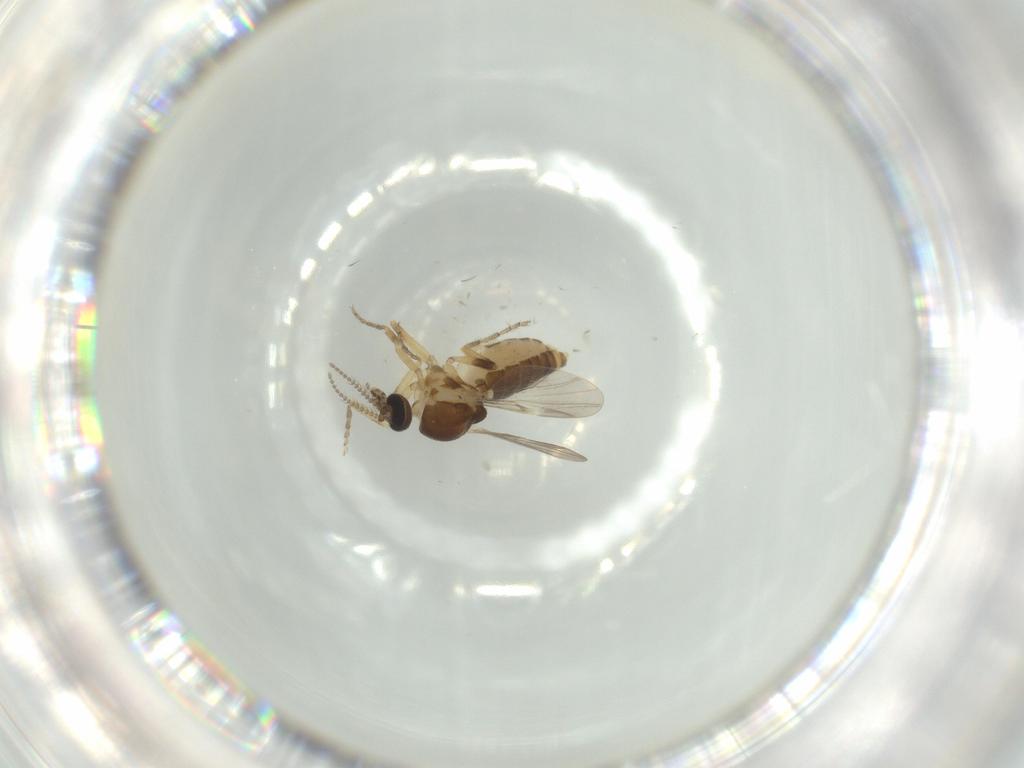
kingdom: Animalia
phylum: Arthropoda
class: Insecta
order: Diptera
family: Ceratopogonidae
